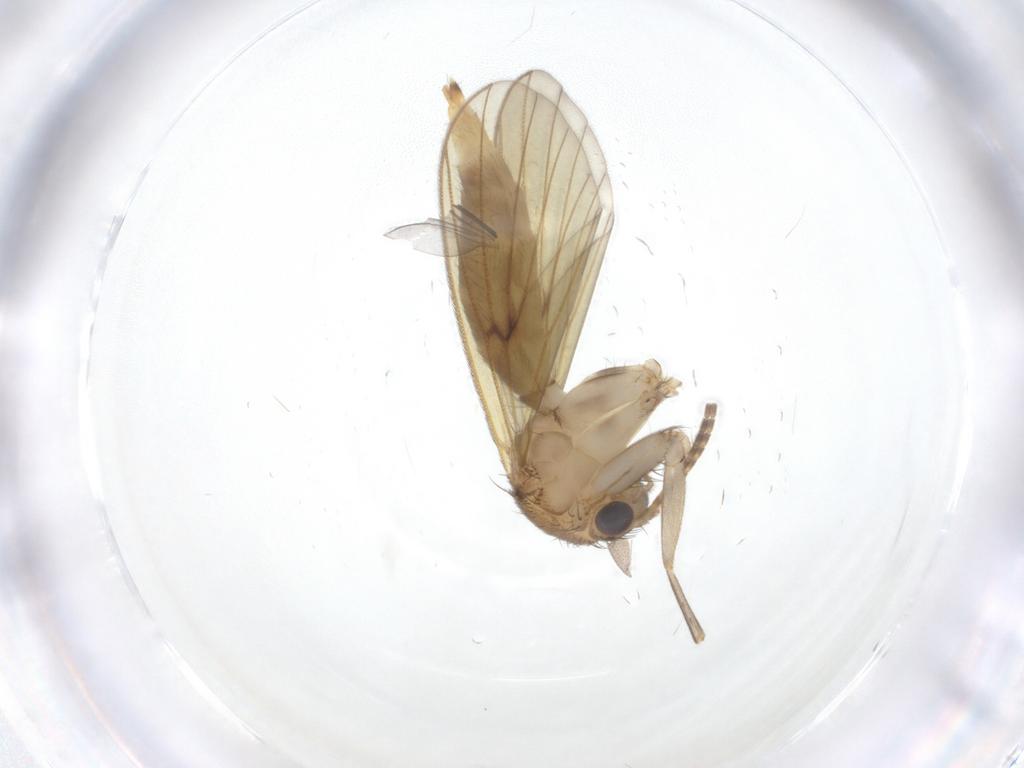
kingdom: Animalia
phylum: Arthropoda
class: Insecta
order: Diptera
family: Mycetophilidae
